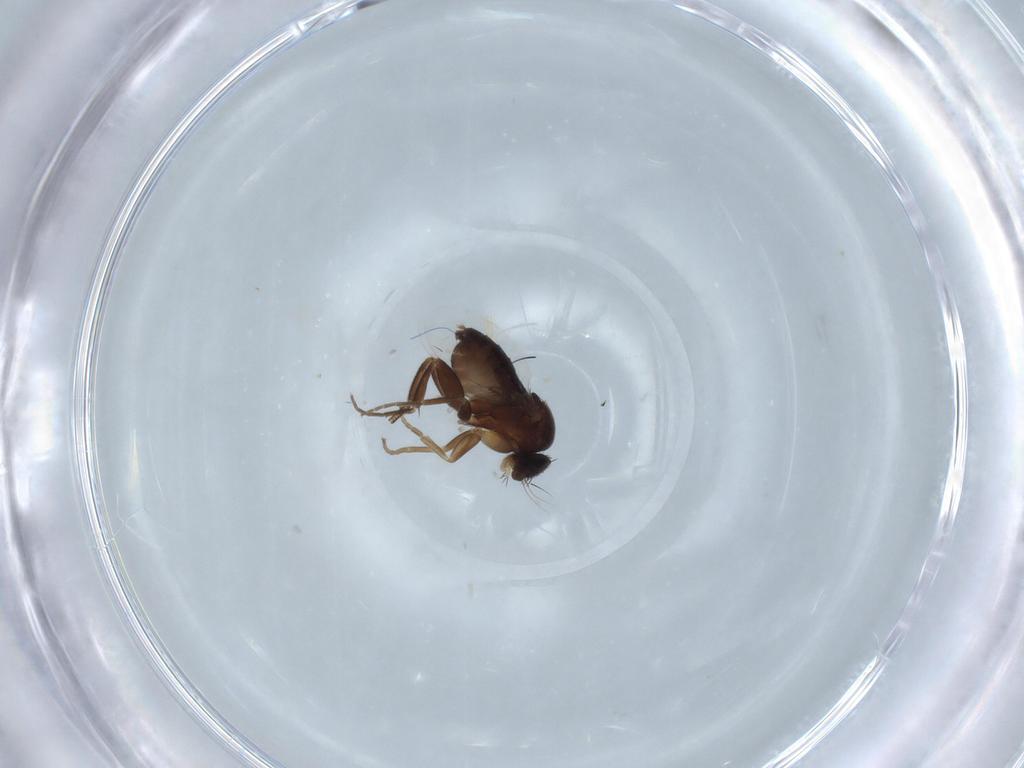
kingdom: Animalia
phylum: Arthropoda
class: Insecta
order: Diptera
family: Phoridae
